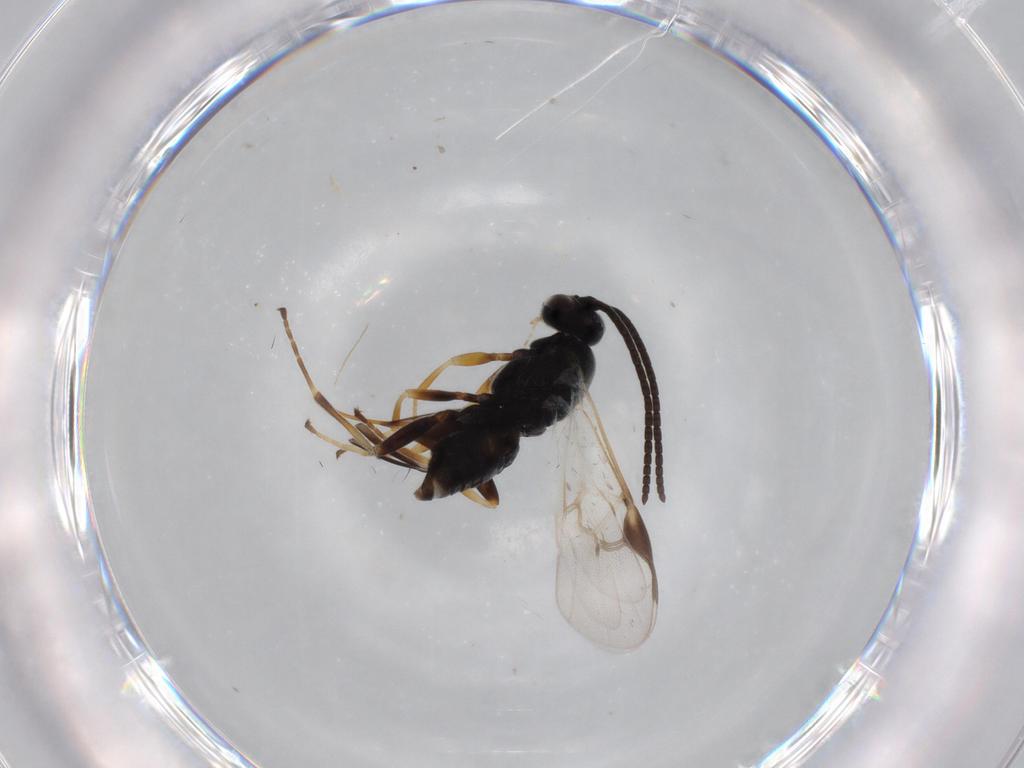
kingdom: Animalia
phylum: Arthropoda
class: Insecta
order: Hymenoptera
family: Braconidae
